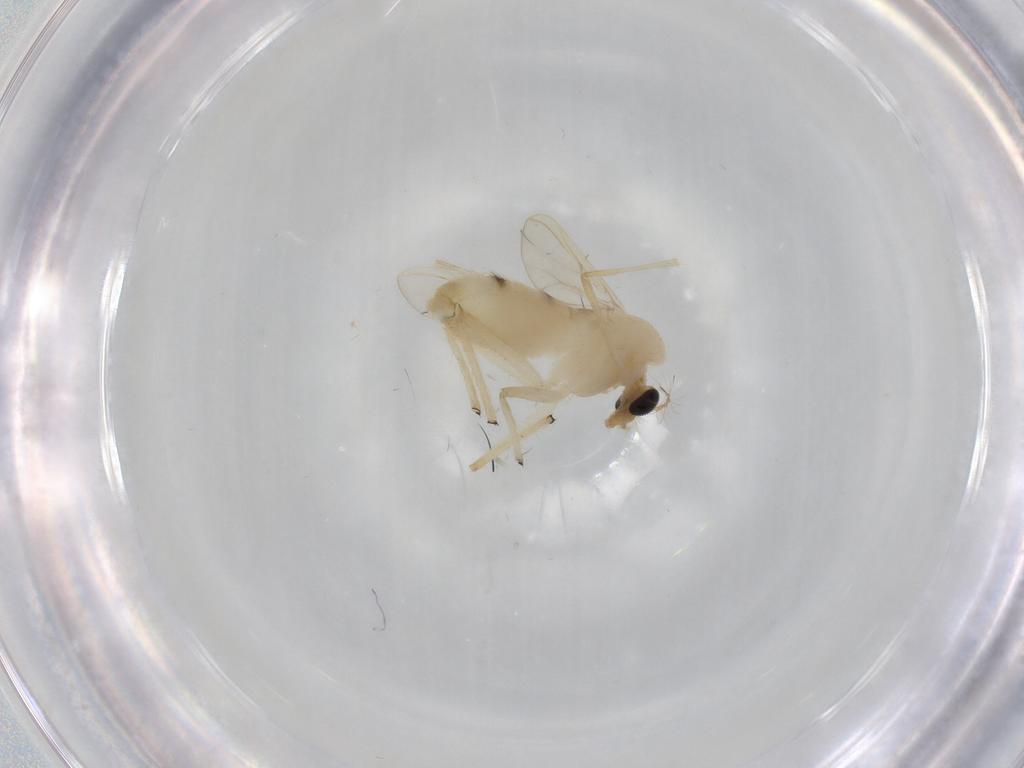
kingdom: Animalia
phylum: Arthropoda
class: Insecta
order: Diptera
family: Chironomidae
